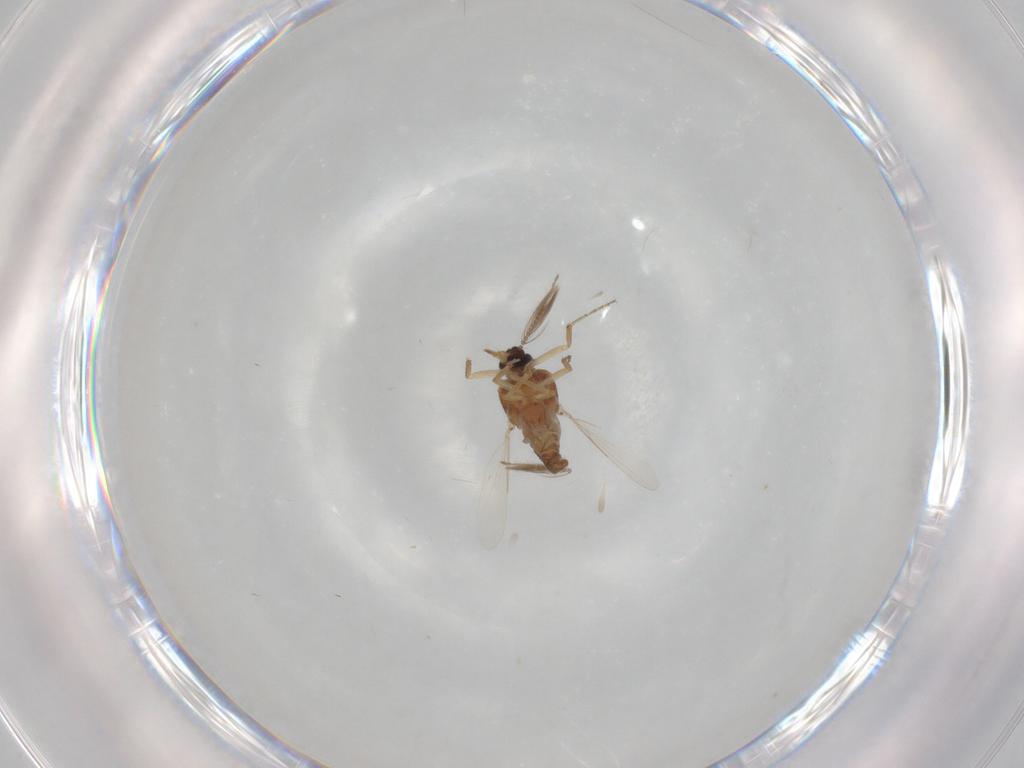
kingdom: Animalia
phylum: Arthropoda
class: Insecta
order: Diptera
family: Ceratopogonidae
